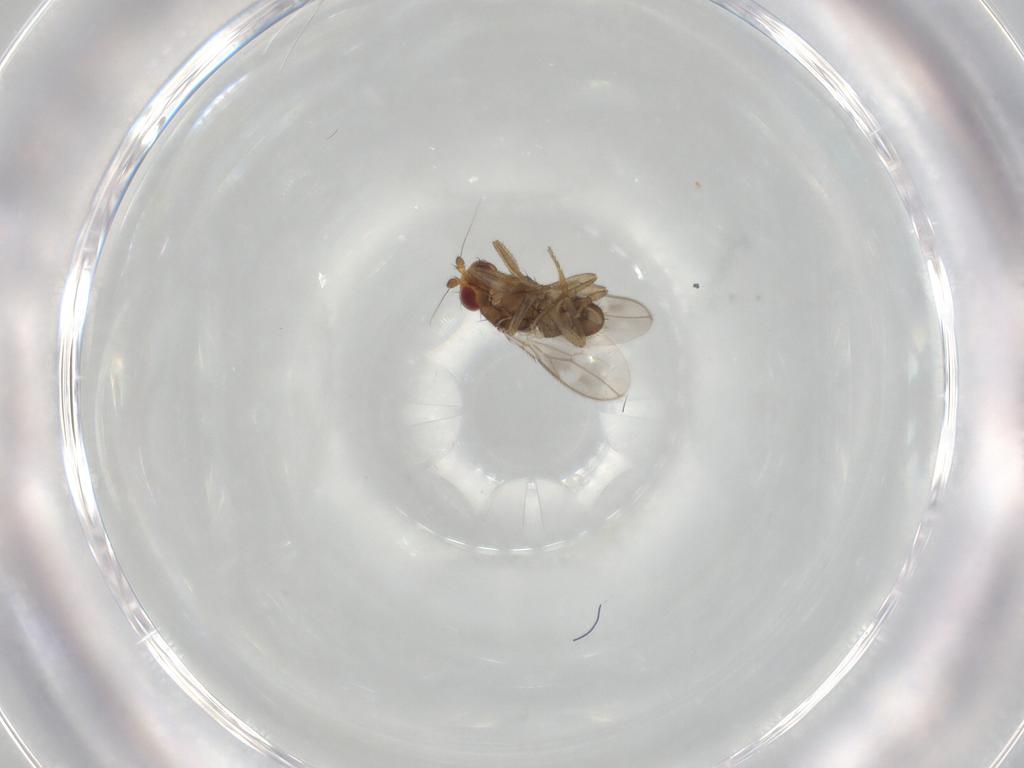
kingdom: Animalia
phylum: Arthropoda
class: Insecta
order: Diptera
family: Sphaeroceridae
